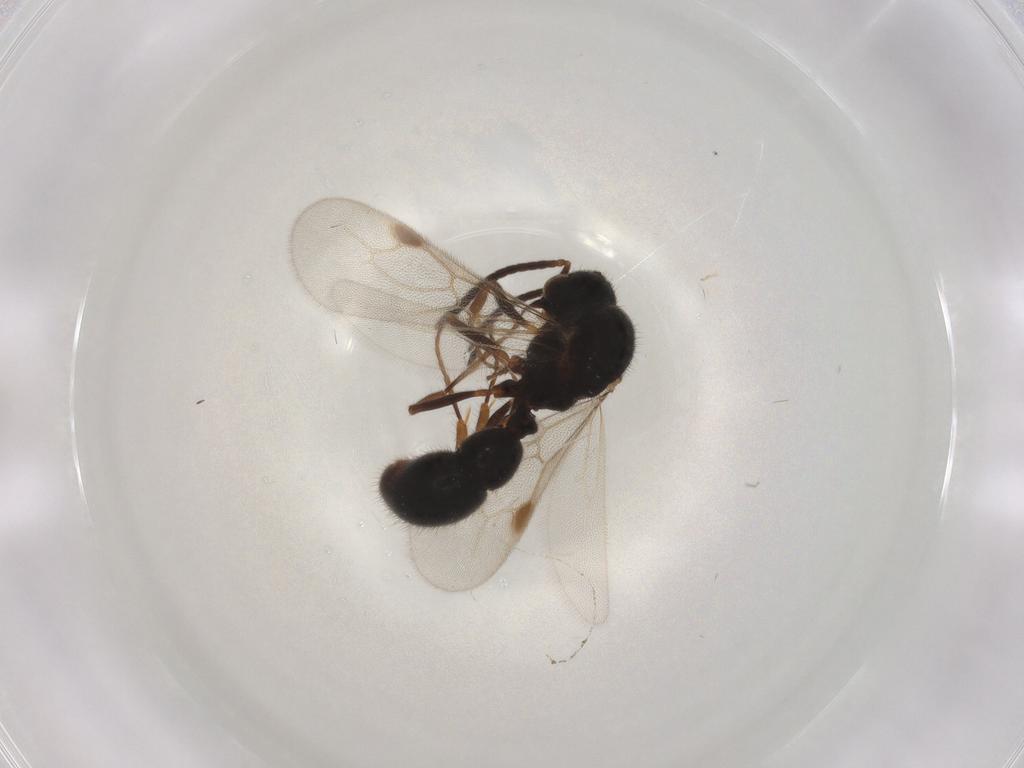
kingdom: Animalia
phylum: Arthropoda
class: Insecta
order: Hymenoptera
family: Formicidae
